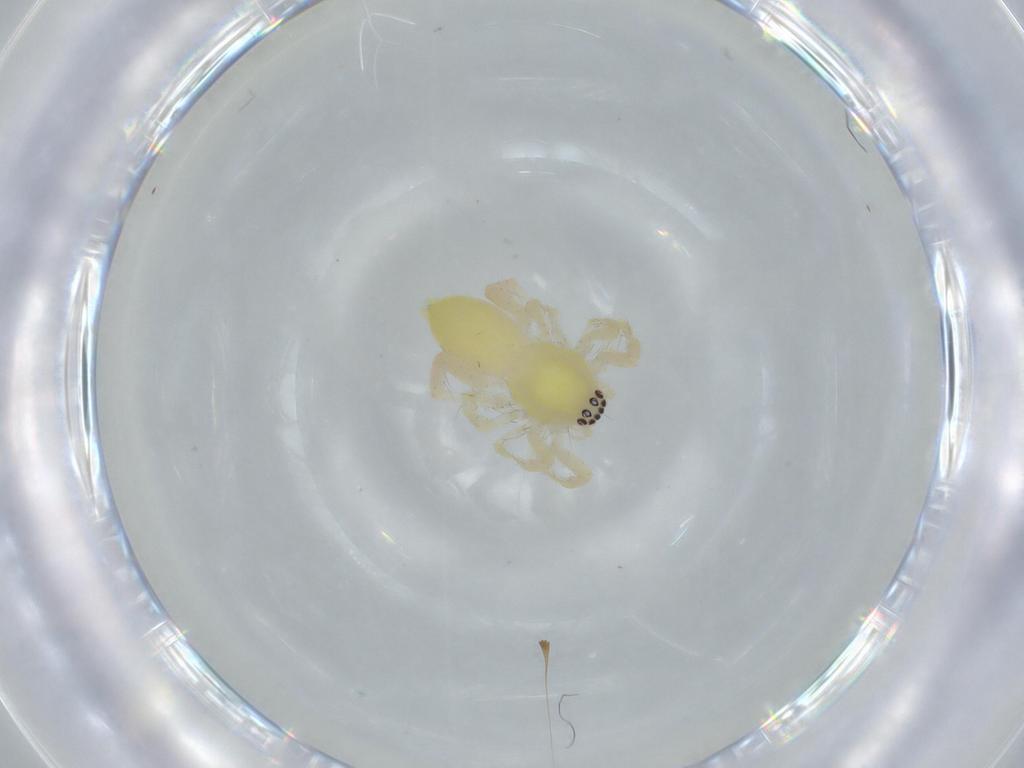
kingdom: Animalia
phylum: Arthropoda
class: Arachnida
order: Araneae
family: Anyphaenidae
